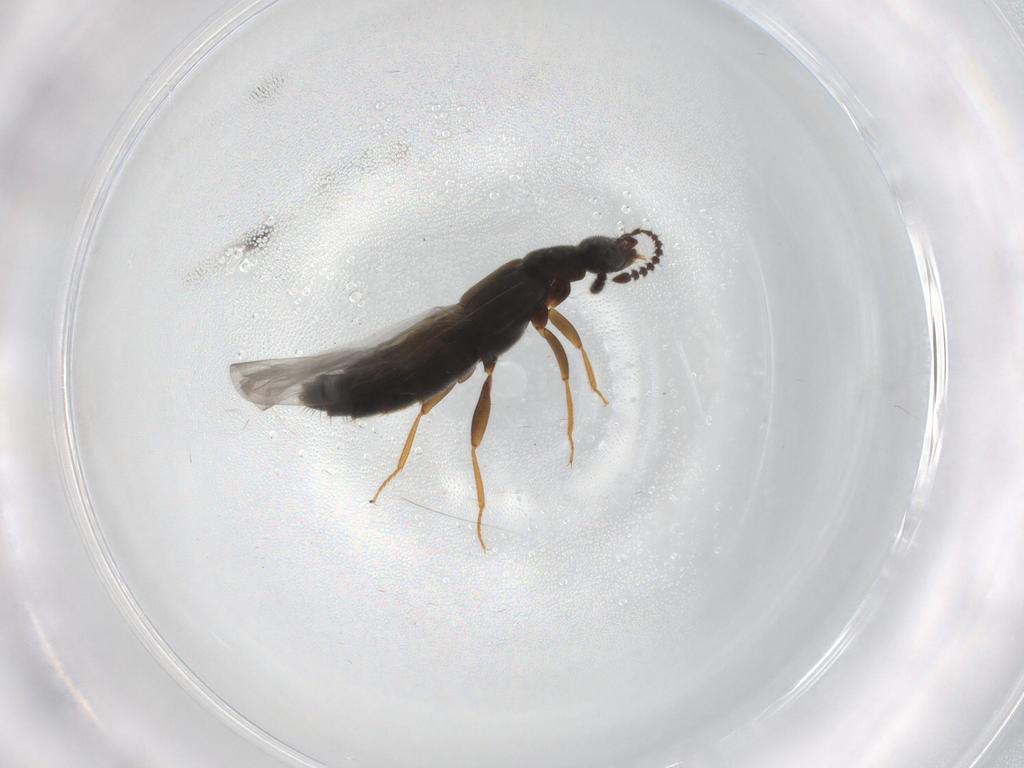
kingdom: Animalia
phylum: Arthropoda
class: Insecta
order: Coleoptera
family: Staphylinidae
